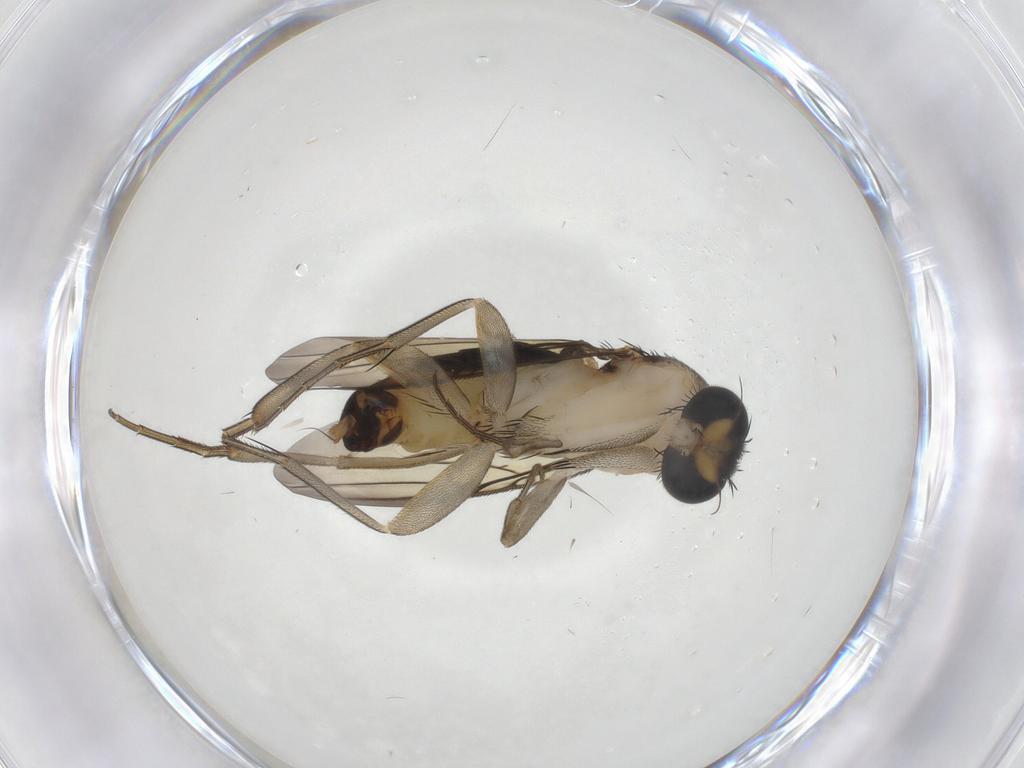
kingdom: Animalia
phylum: Arthropoda
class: Insecta
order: Diptera
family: Phoridae
